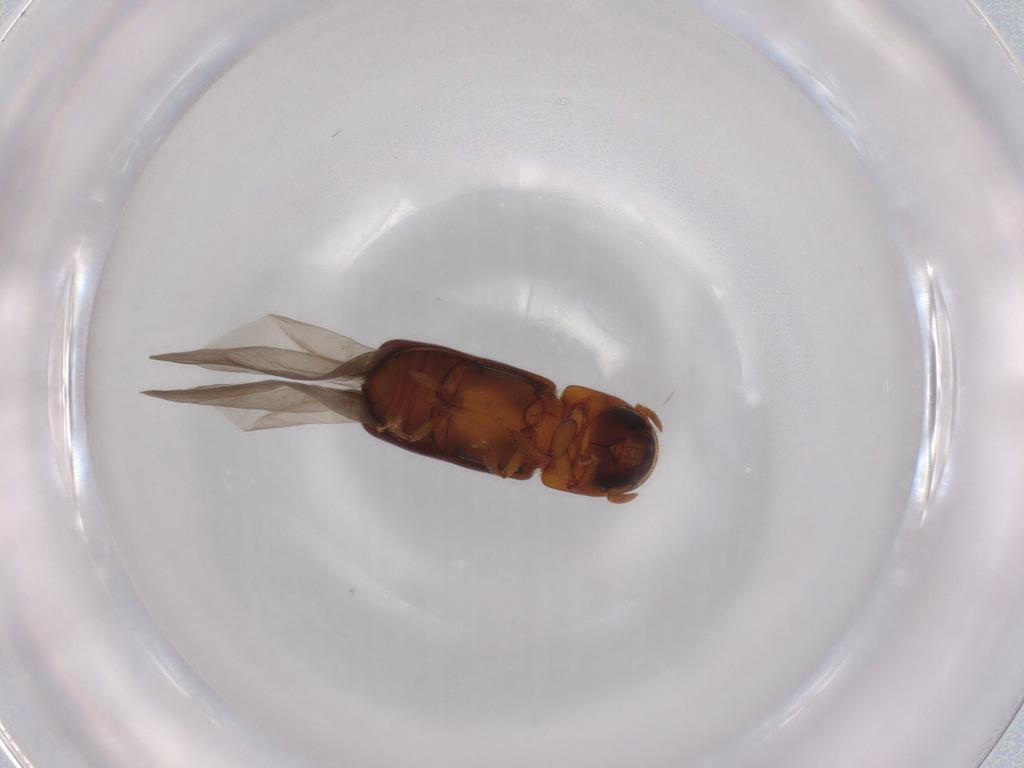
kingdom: Animalia
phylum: Arthropoda
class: Insecta
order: Coleoptera
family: Curculionidae
